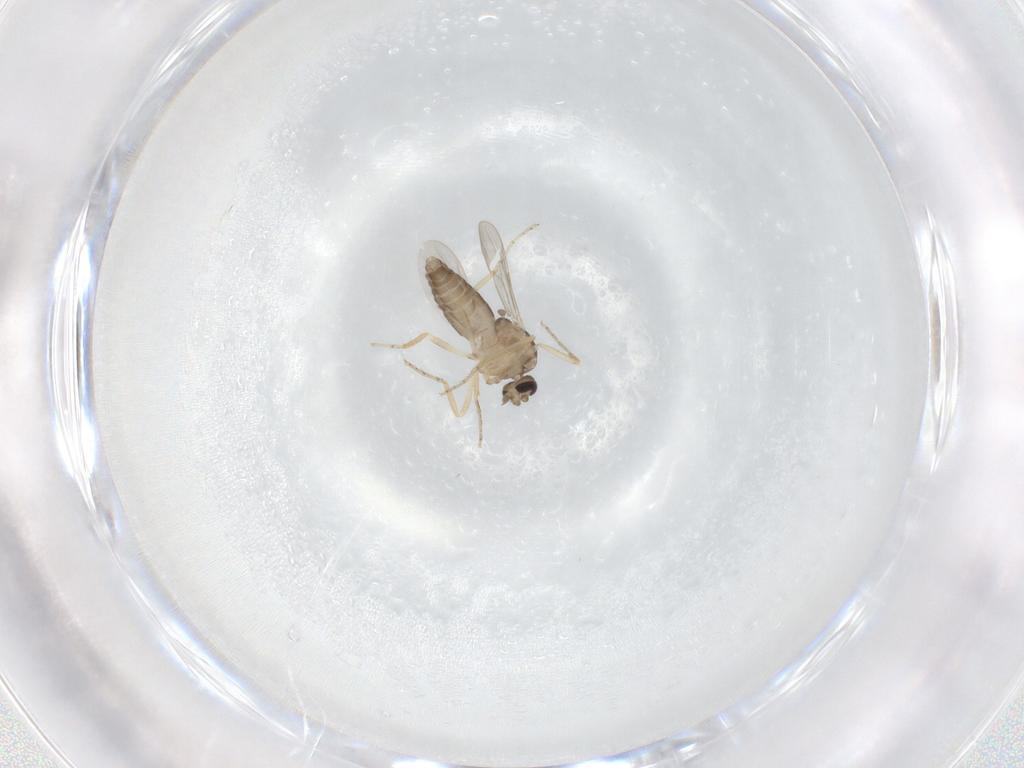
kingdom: Animalia
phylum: Arthropoda
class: Insecta
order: Diptera
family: Ceratopogonidae
